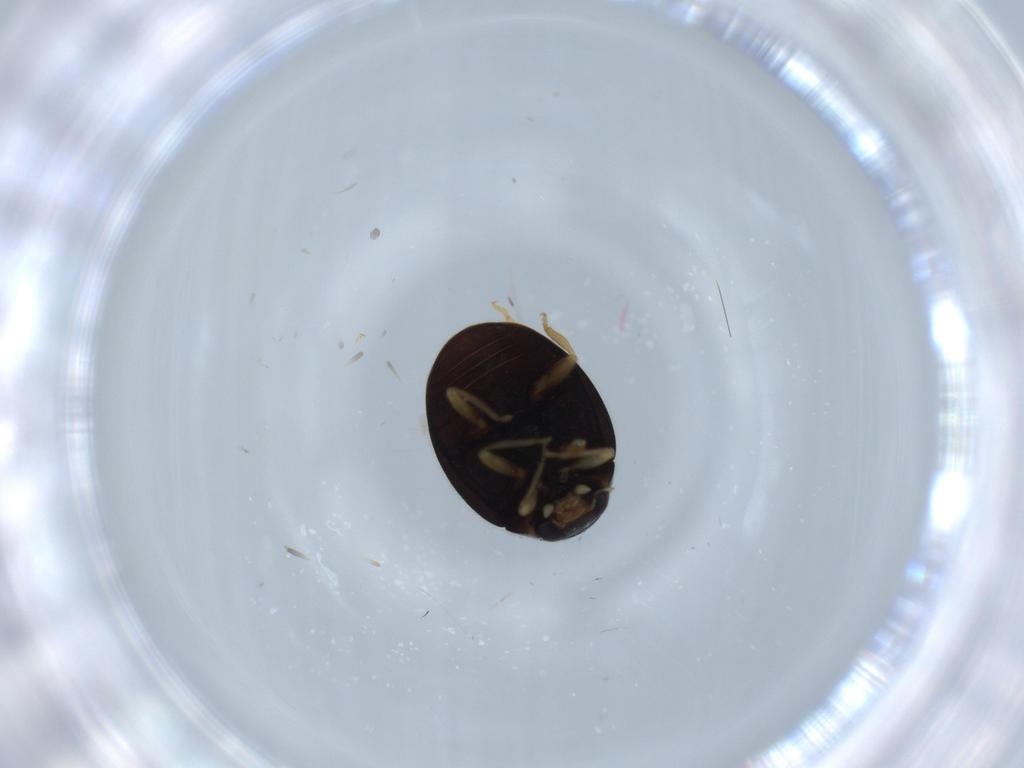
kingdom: Animalia
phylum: Arthropoda
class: Insecta
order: Coleoptera
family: Coccinellidae
